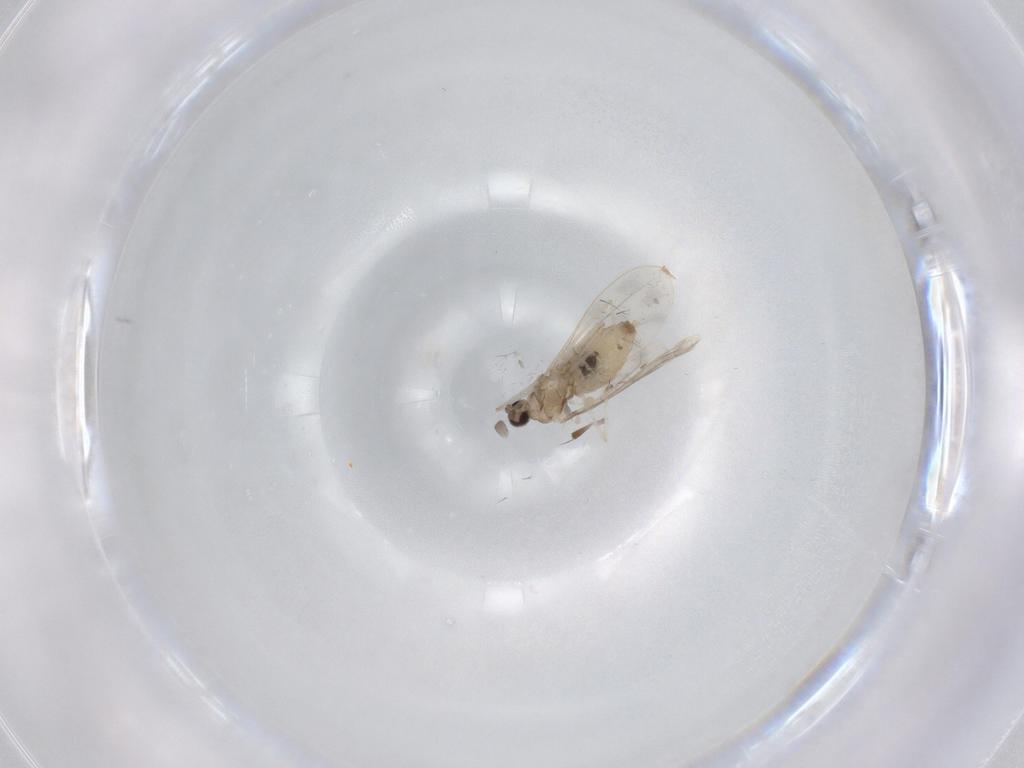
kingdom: Animalia
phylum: Arthropoda
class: Insecta
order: Diptera
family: Cecidomyiidae
